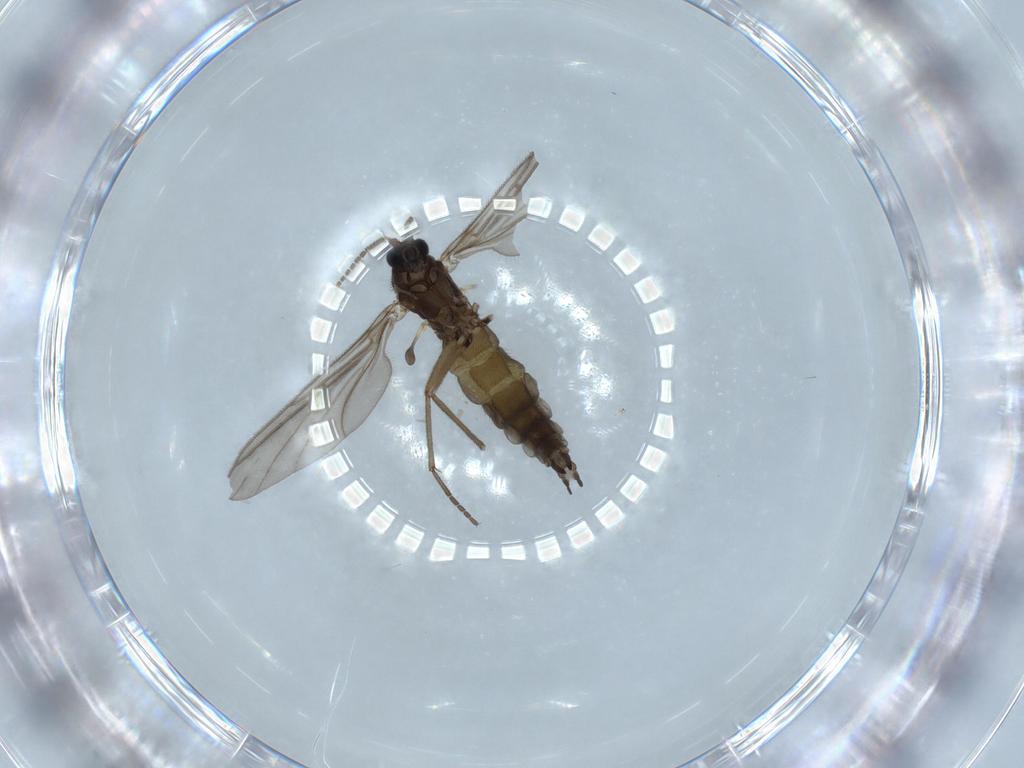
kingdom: Animalia
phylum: Arthropoda
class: Insecta
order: Diptera
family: Sciaridae
